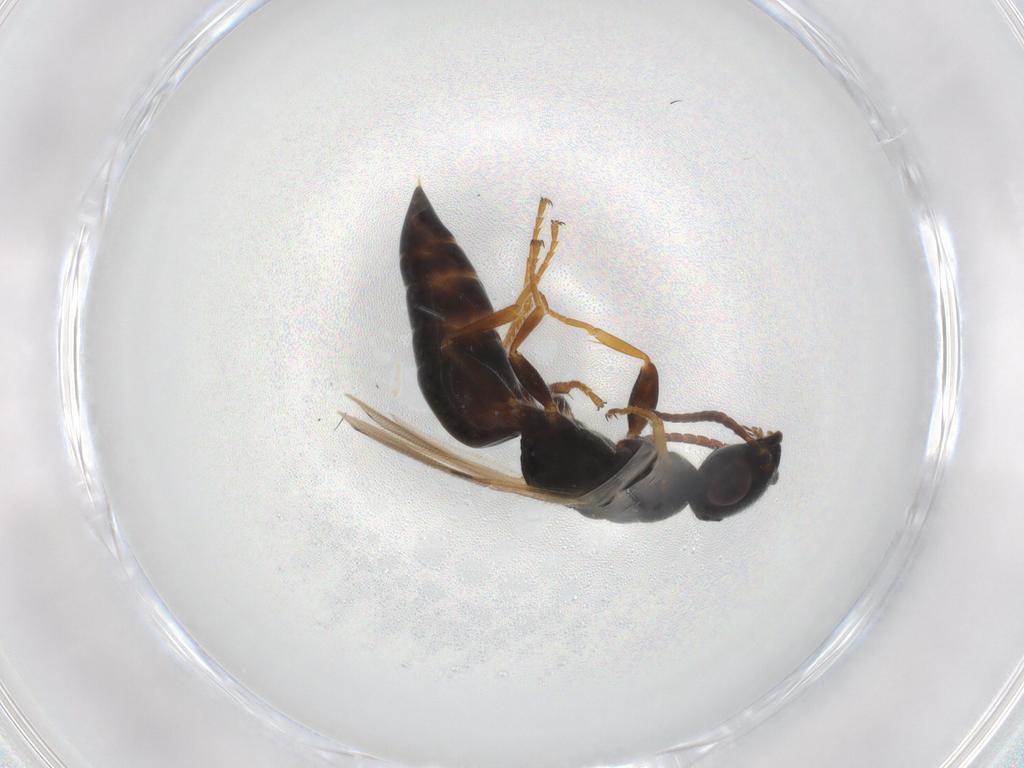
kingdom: Animalia
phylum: Arthropoda
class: Insecta
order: Hymenoptera
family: Bethylidae
